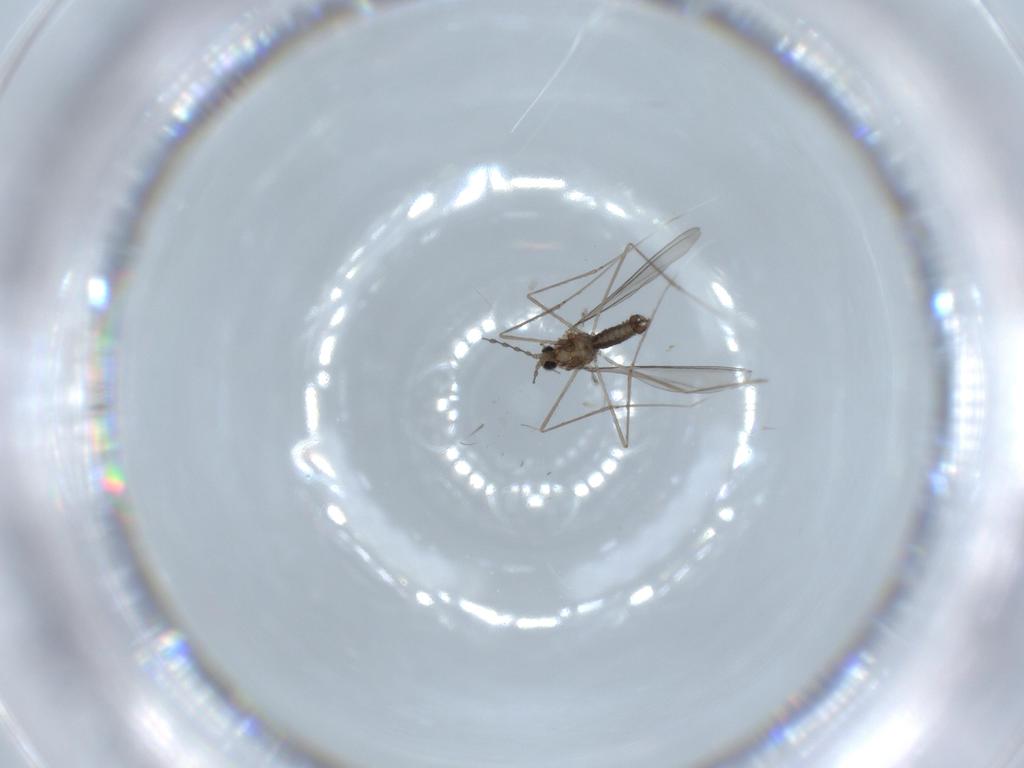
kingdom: Animalia
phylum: Arthropoda
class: Insecta
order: Diptera
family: Cecidomyiidae
